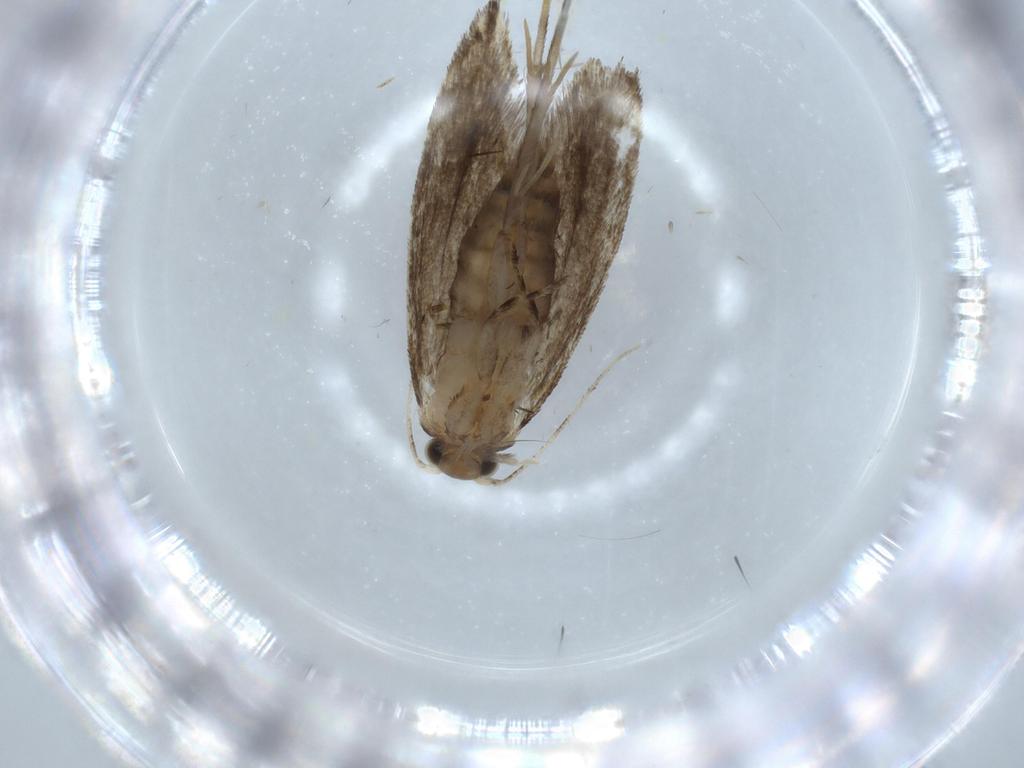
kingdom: Animalia
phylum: Arthropoda
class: Insecta
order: Lepidoptera
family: Tineidae
